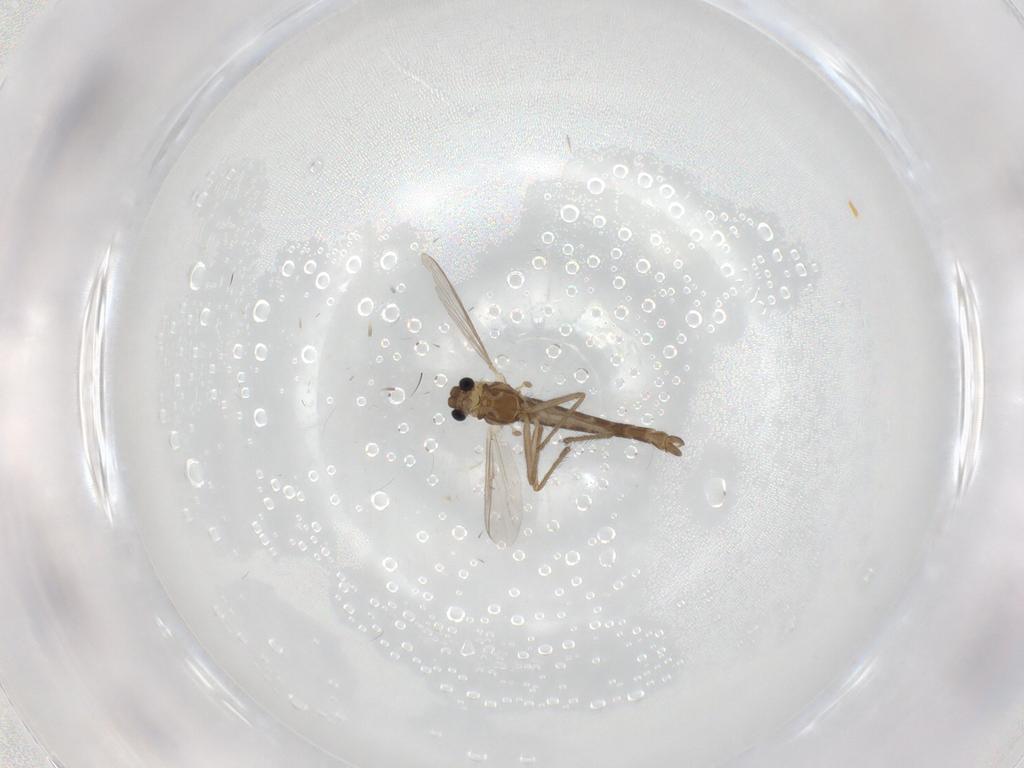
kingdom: Animalia
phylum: Arthropoda
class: Insecta
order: Diptera
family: Chironomidae
